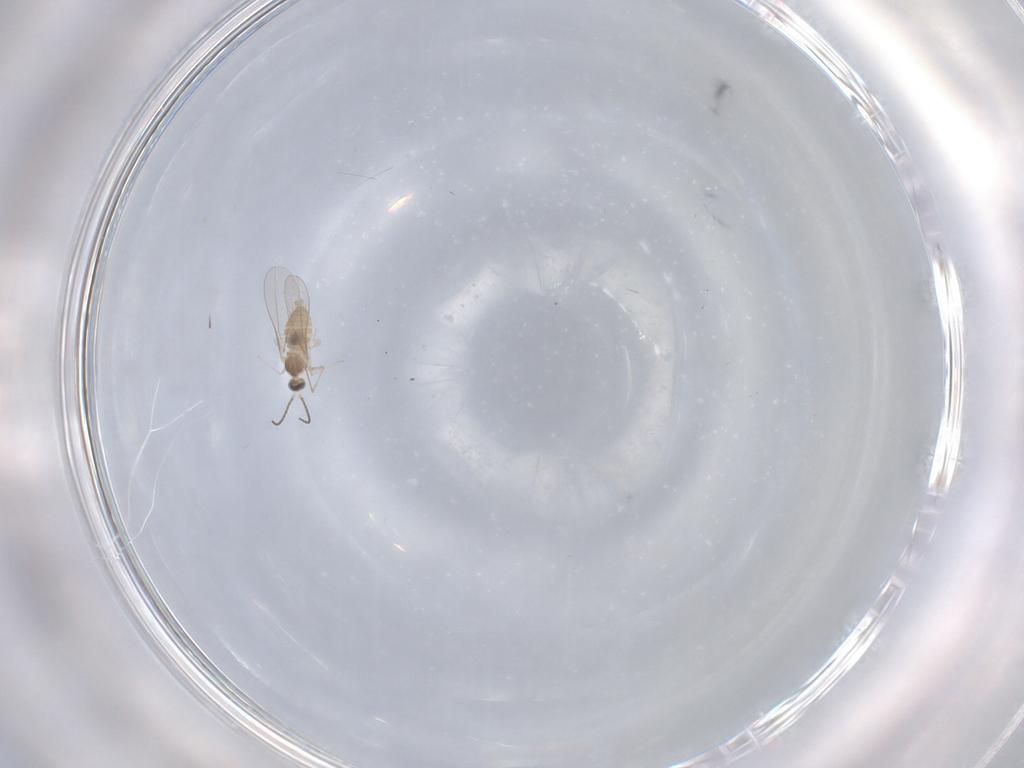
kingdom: Animalia
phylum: Arthropoda
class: Insecta
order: Diptera
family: Cecidomyiidae
